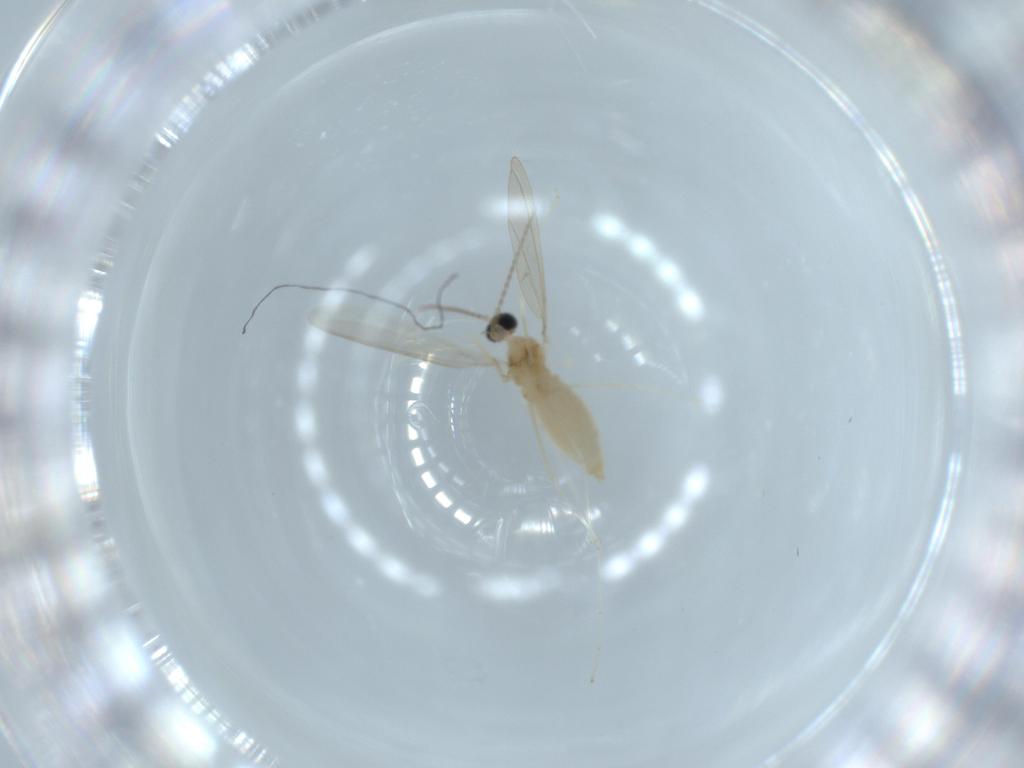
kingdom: Animalia
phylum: Arthropoda
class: Insecta
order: Diptera
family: Cecidomyiidae
